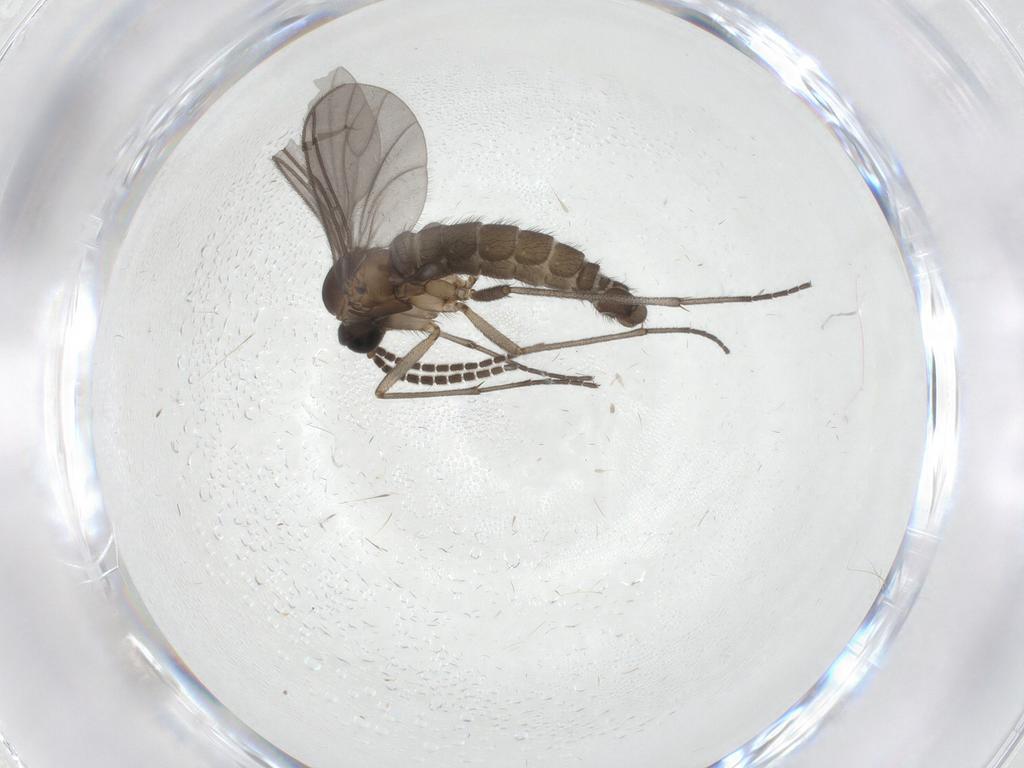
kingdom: Animalia
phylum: Arthropoda
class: Insecta
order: Diptera
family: Sciaridae
